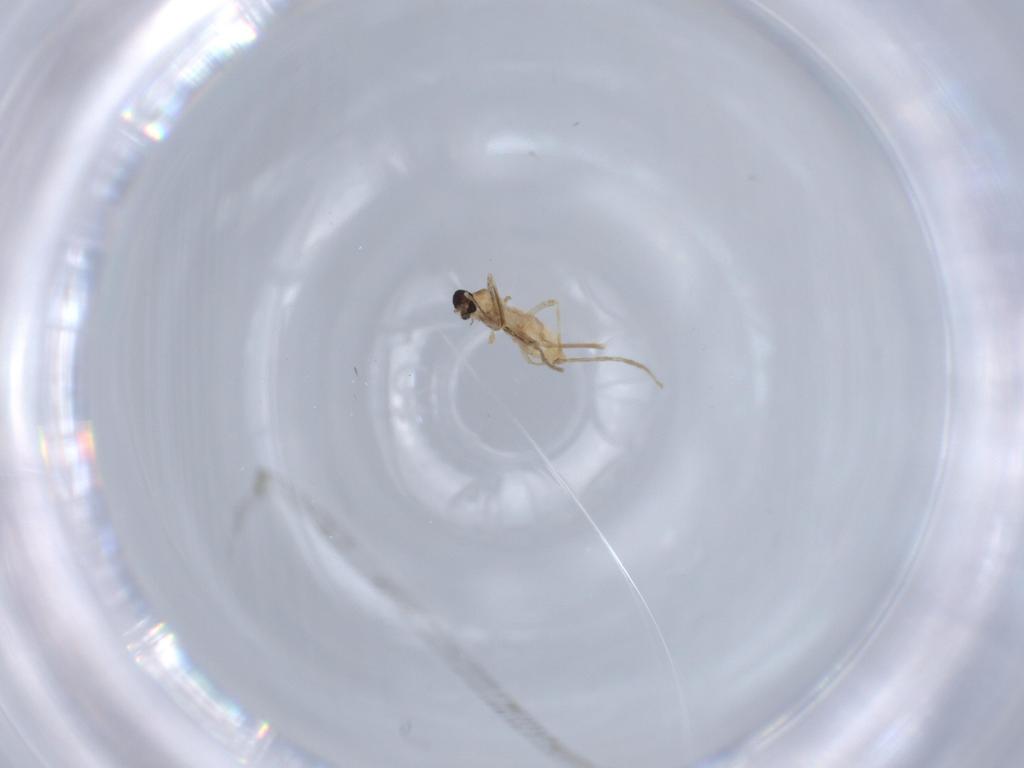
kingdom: Animalia
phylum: Arthropoda
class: Insecta
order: Diptera
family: Cecidomyiidae
